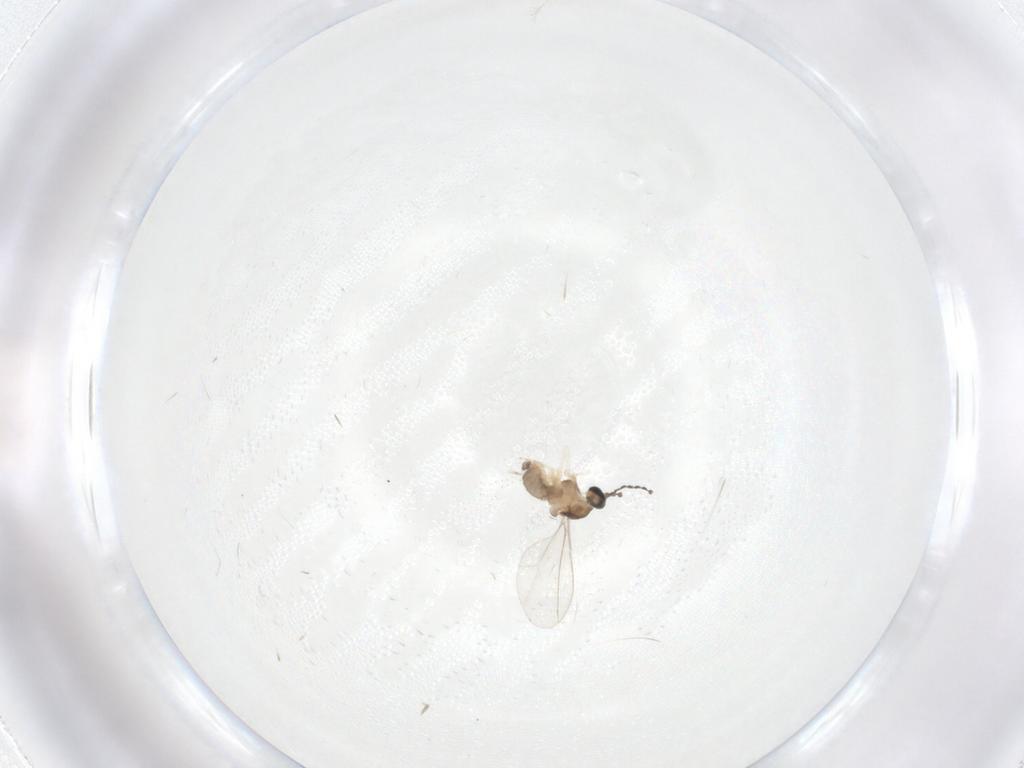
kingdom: Animalia
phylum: Arthropoda
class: Insecta
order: Diptera
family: Cecidomyiidae
